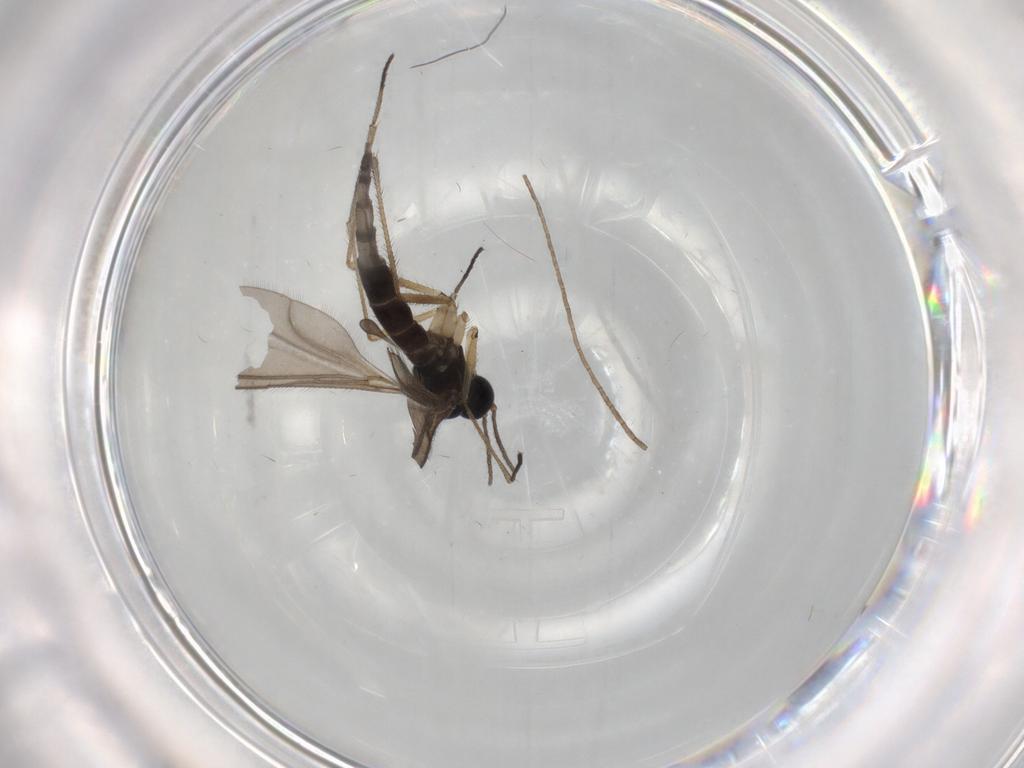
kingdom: Animalia
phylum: Arthropoda
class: Insecta
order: Diptera
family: Sciaridae
